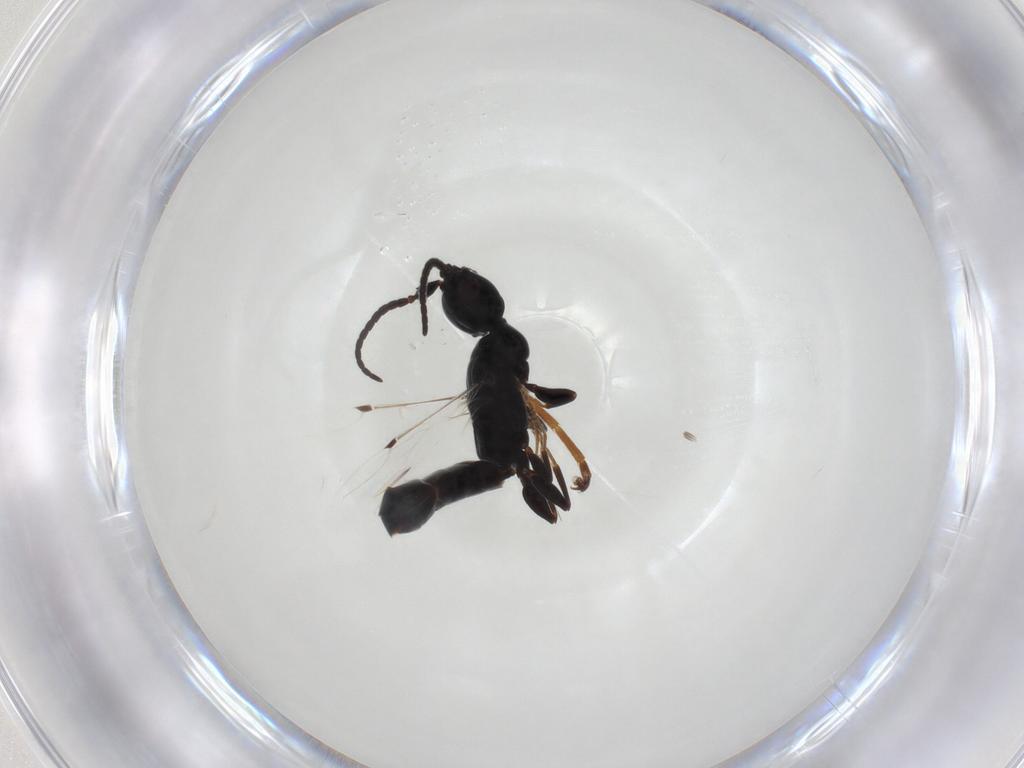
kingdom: Animalia
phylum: Arthropoda
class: Insecta
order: Hymenoptera
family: Bethylidae
